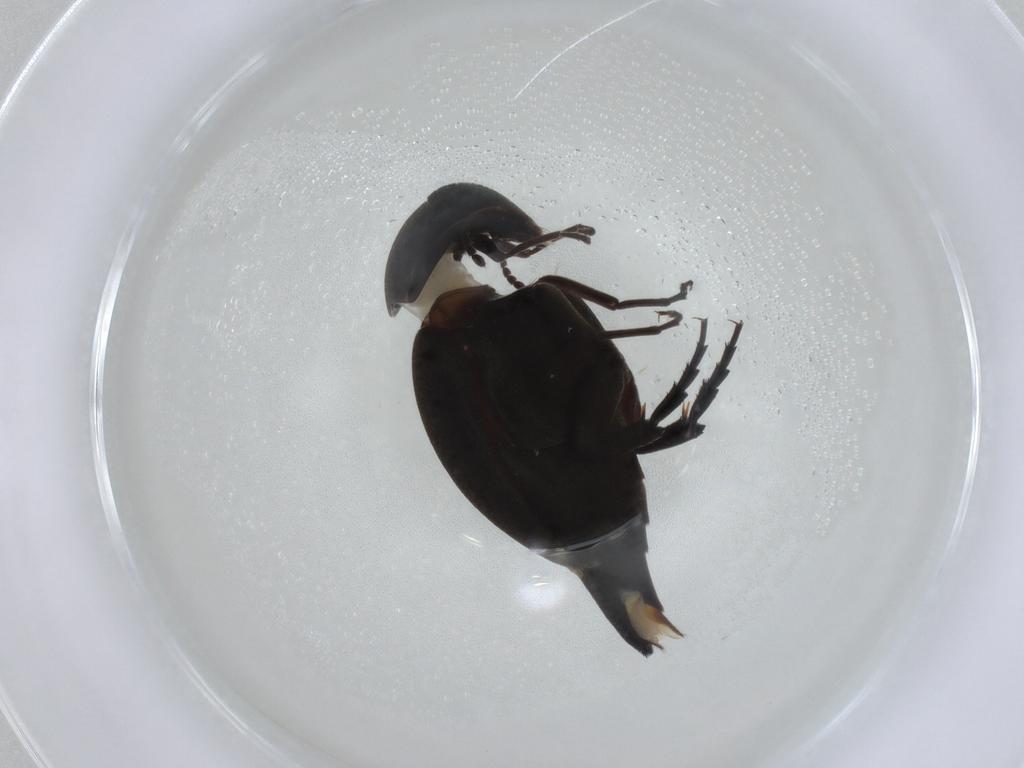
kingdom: Animalia
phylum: Arthropoda
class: Insecta
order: Coleoptera
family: Mordellidae
